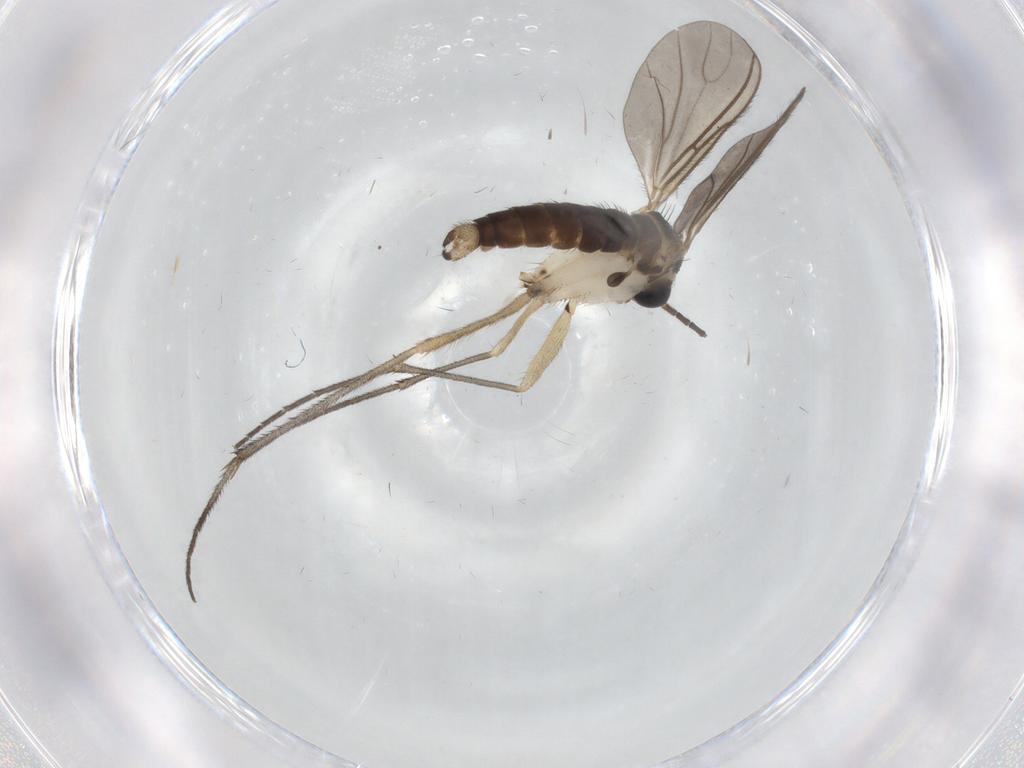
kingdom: Animalia
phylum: Arthropoda
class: Insecta
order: Diptera
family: Sciaridae
